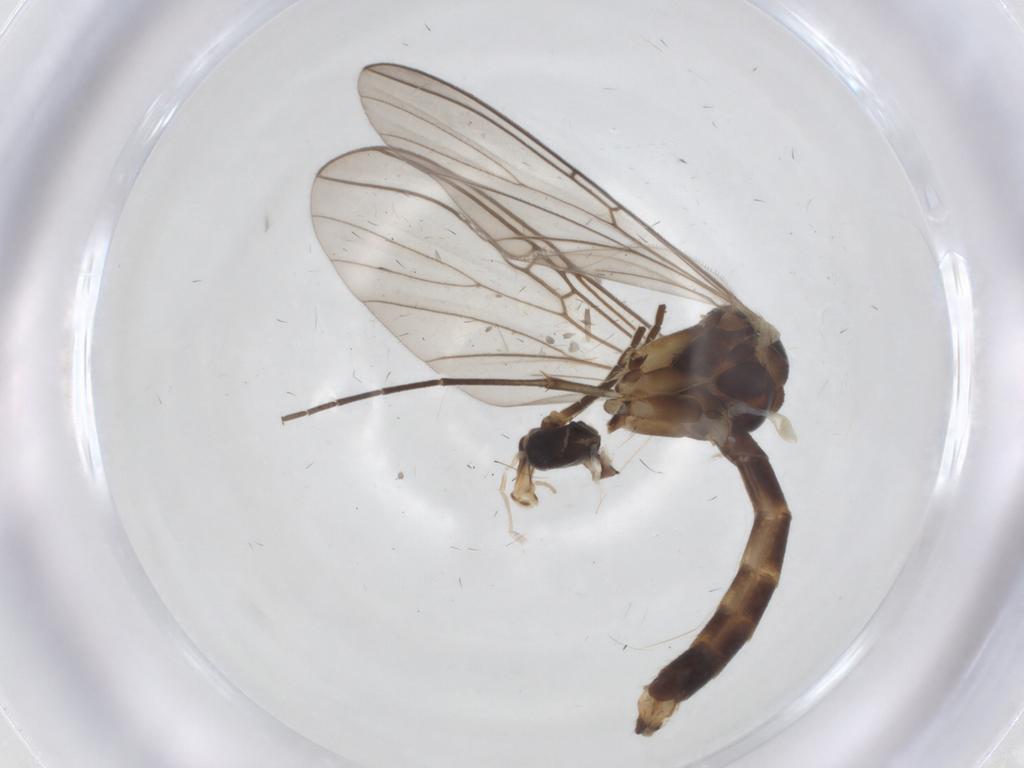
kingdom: Animalia
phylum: Arthropoda
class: Insecta
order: Diptera
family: Mycetophilidae
